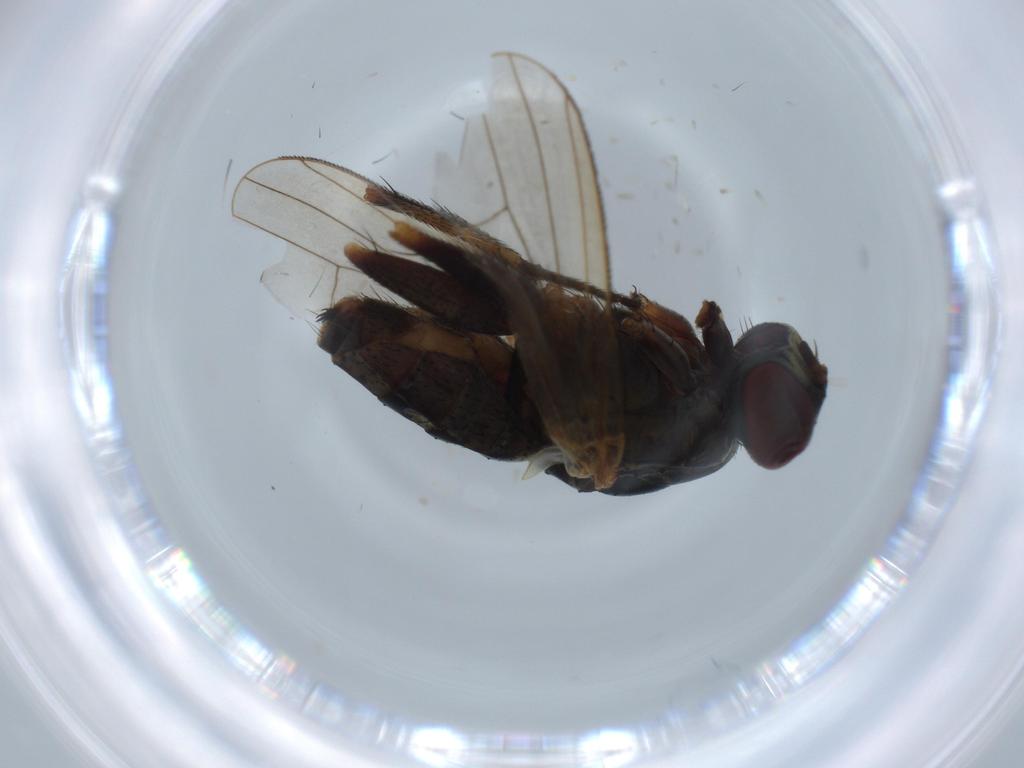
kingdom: Animalia
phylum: Arthropoda
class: Insecta
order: Diptera
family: Muscidae
